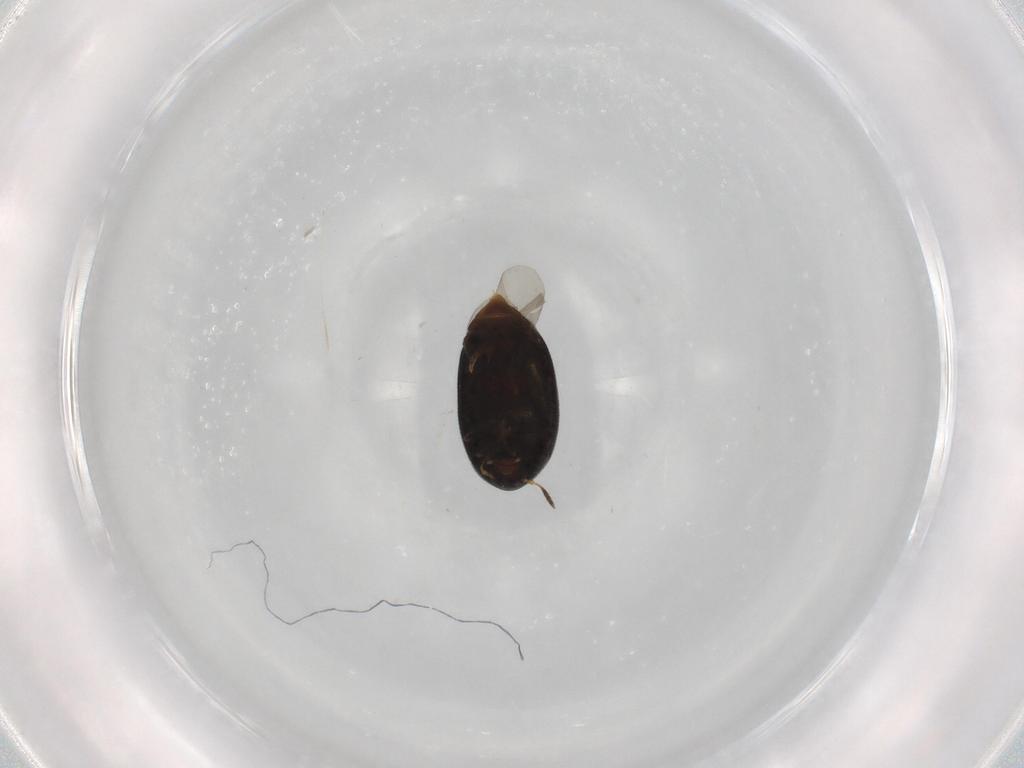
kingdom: Animalia
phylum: Arthropoda
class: Insecta
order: Coleoptera
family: Melandryidae
